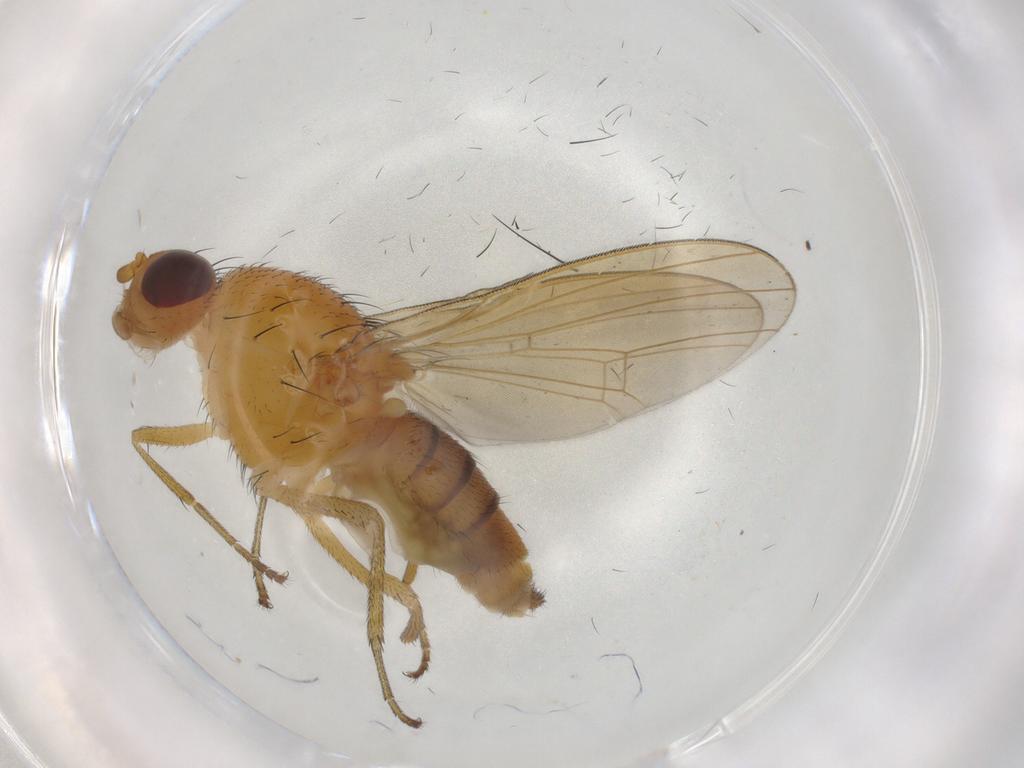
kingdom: Animalia
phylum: Arthropoda
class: Insecta
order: Diptera
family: Lauxaniidae
